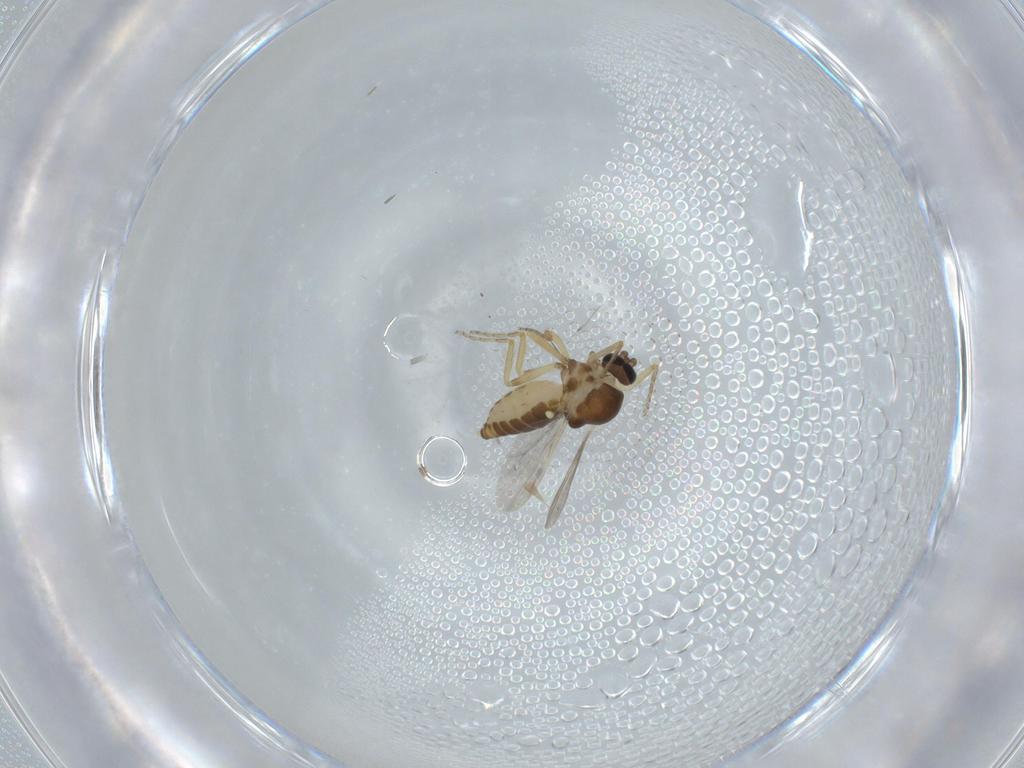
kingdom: Animalia
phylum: Arthropoda
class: Insecta
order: Diptera
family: Ceratopogonidae
